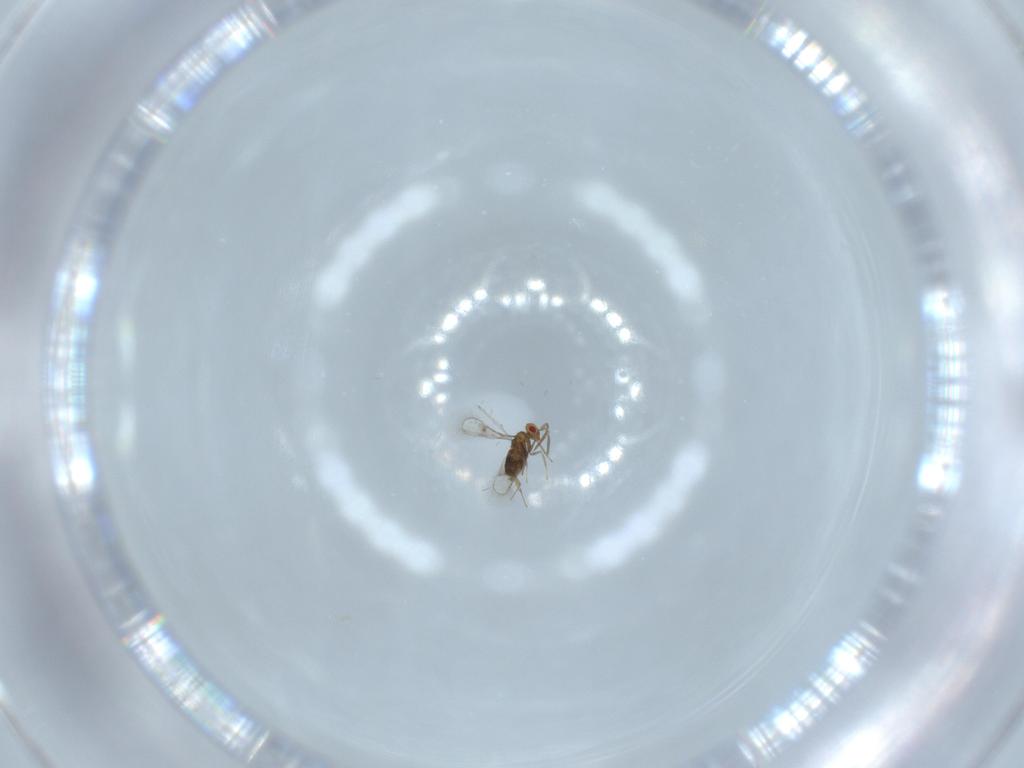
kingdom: Animalia
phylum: Arthropoda
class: Insecta
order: Hymenoptera
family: Trichogrammatidae
